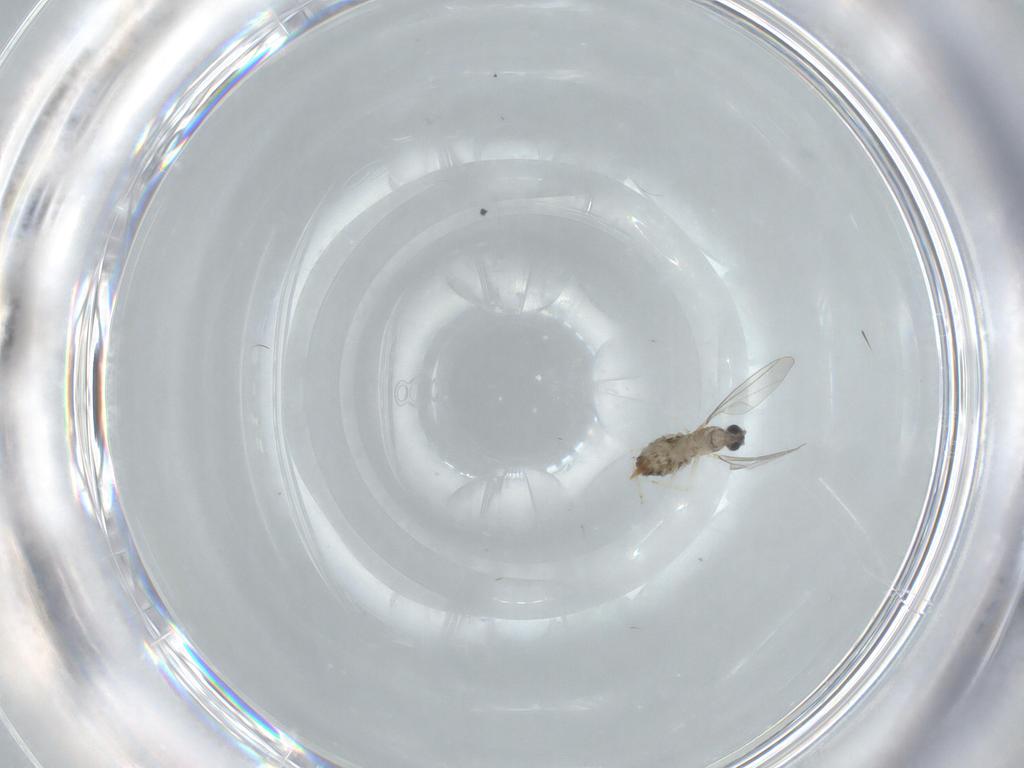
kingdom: Animalia
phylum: Arthropoda
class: Insecta
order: Diptera
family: Cecidomyiidae
